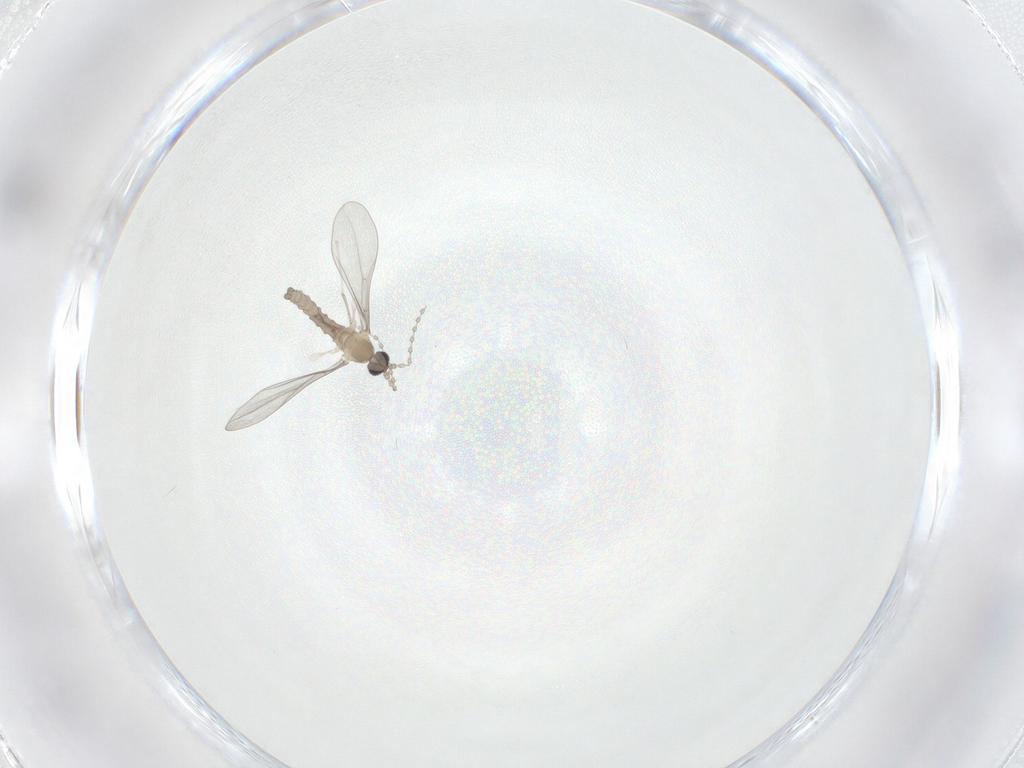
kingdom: Animalia
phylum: Arthropoda
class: Insecta
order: Diptera
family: Cecidomyiidae
